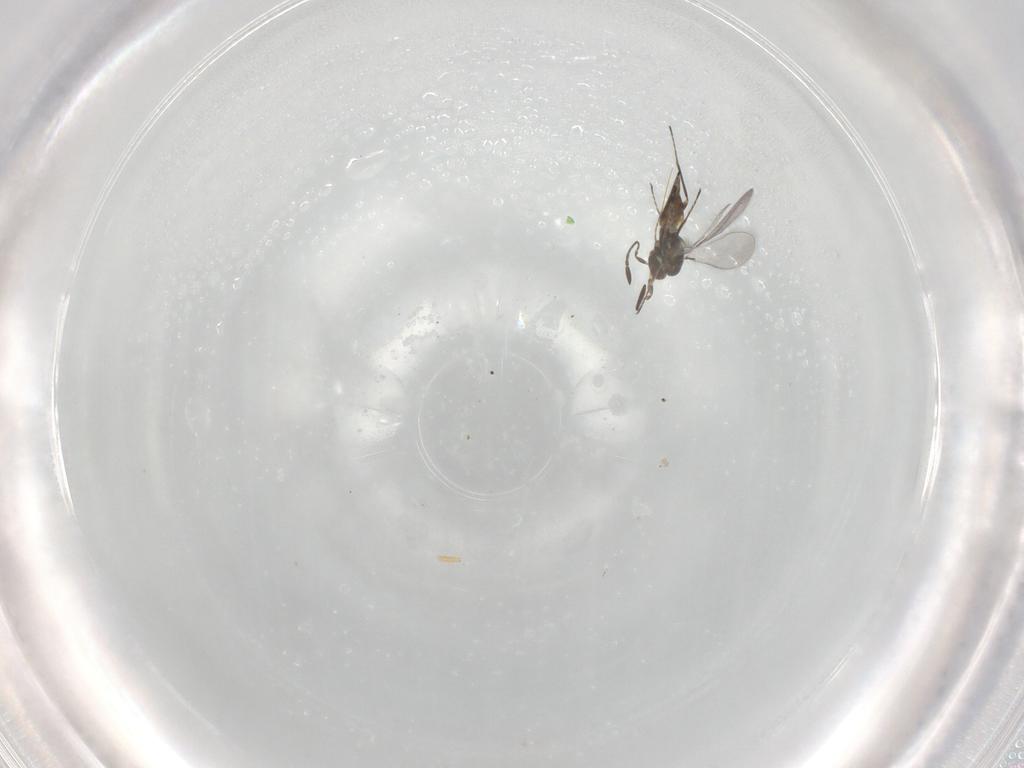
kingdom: Animalia
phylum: Arthropoda
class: Insecta
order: Hymenoptera
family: Mymaridae
